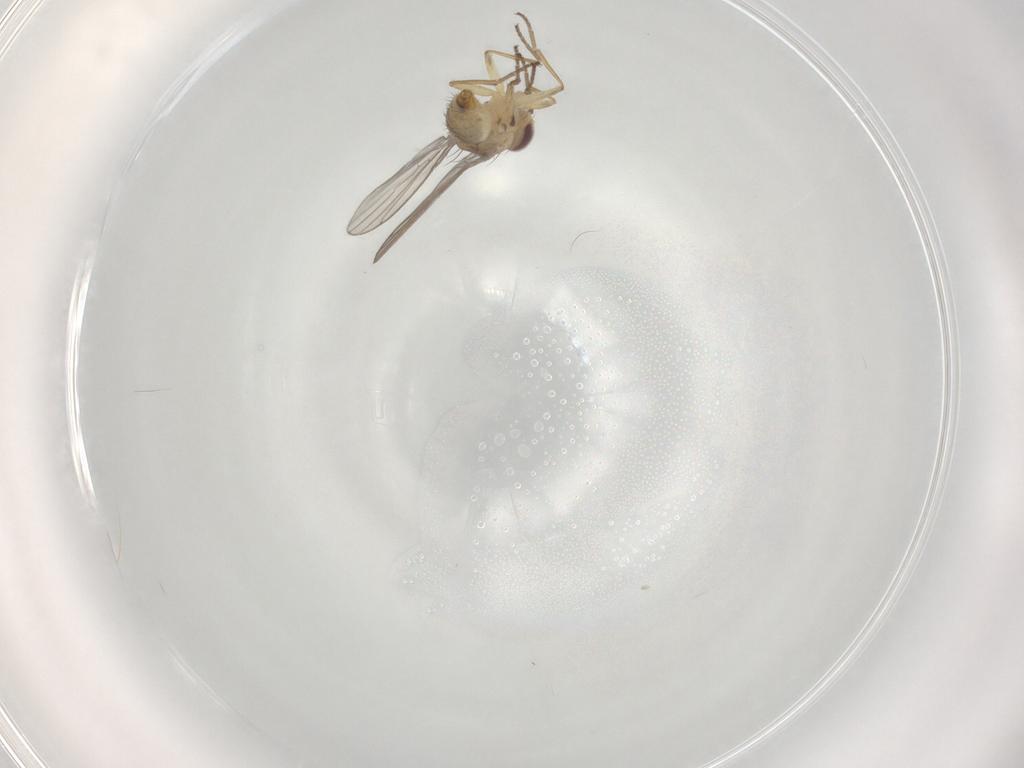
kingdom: Animalia
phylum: Arthropoda
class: Insecta
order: Diptera
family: Agromyzidae
